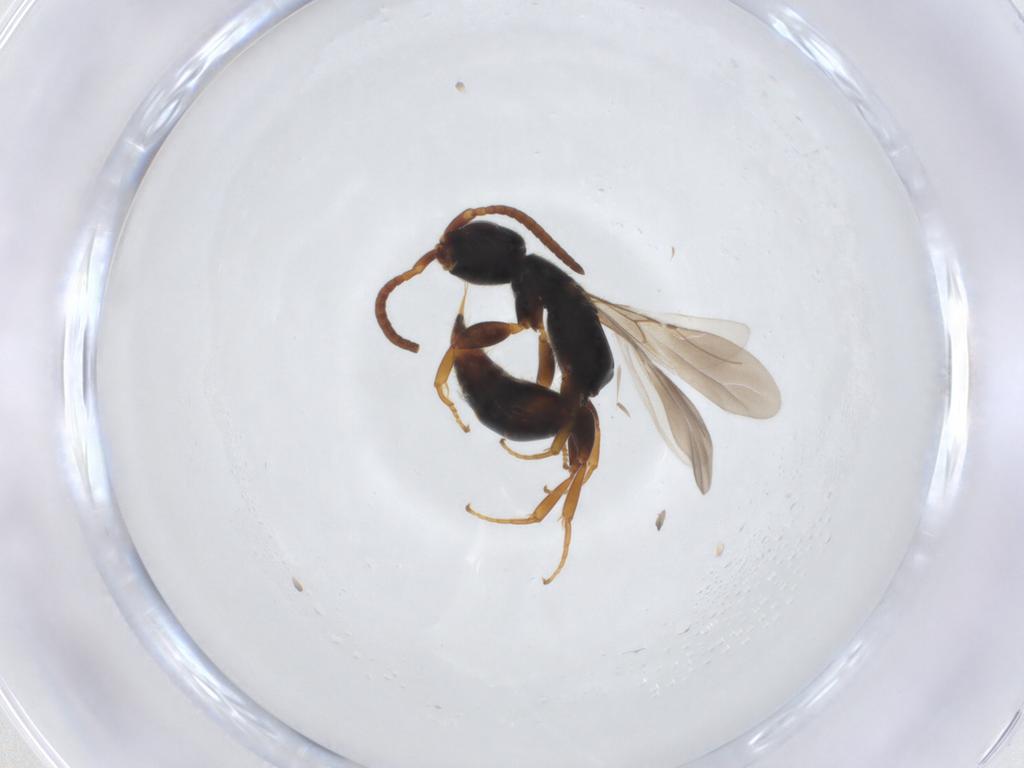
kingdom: Animalia
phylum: Arthropoda
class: Insecta
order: Hymenoptera
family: Bethylidae
